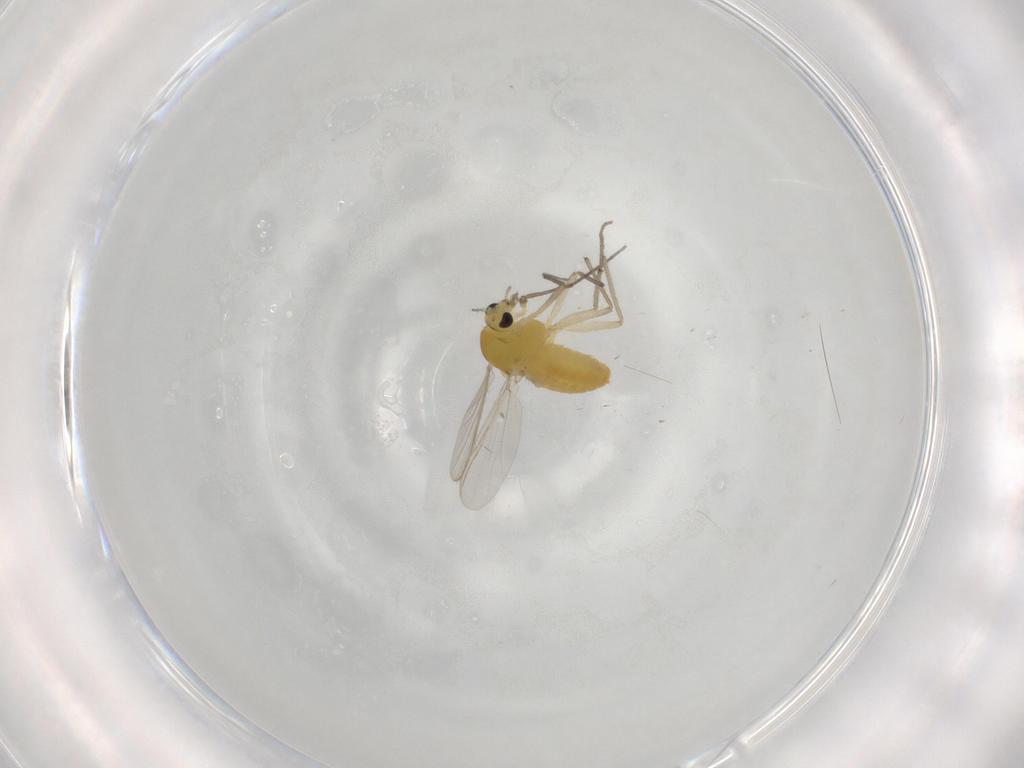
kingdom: Animalia
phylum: Arthropoda
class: Insecta
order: Diptera
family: Chironomidae
